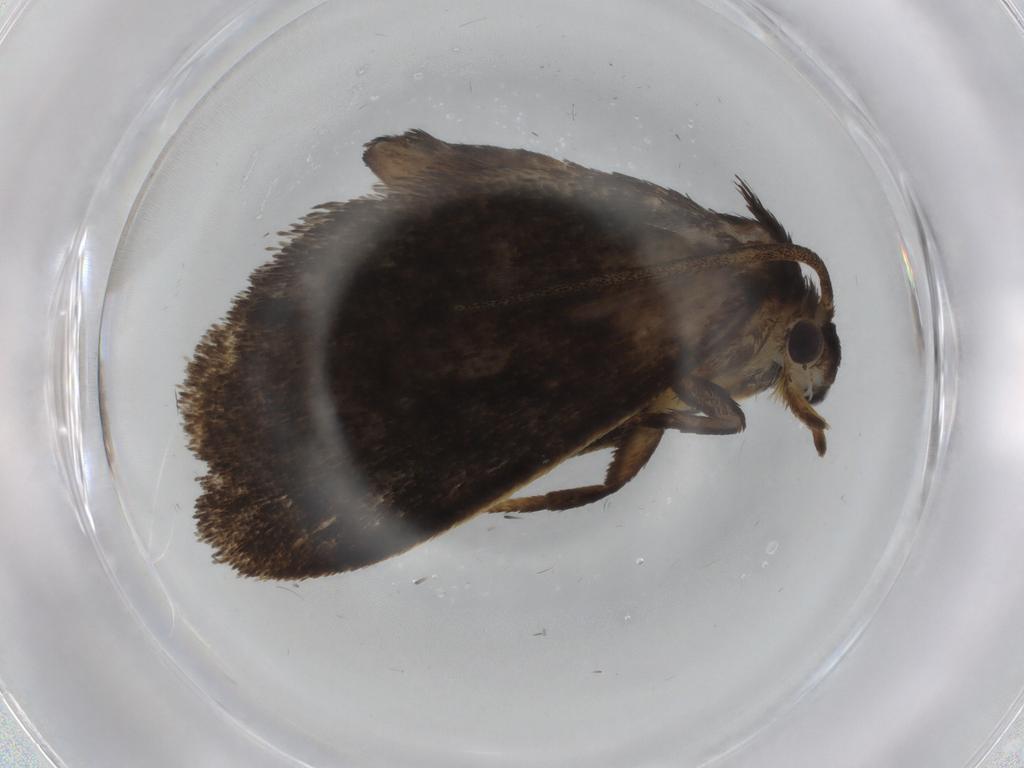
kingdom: Animalia
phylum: Arthropoda
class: Insecta
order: Lepidoptera
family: Limacodidae
